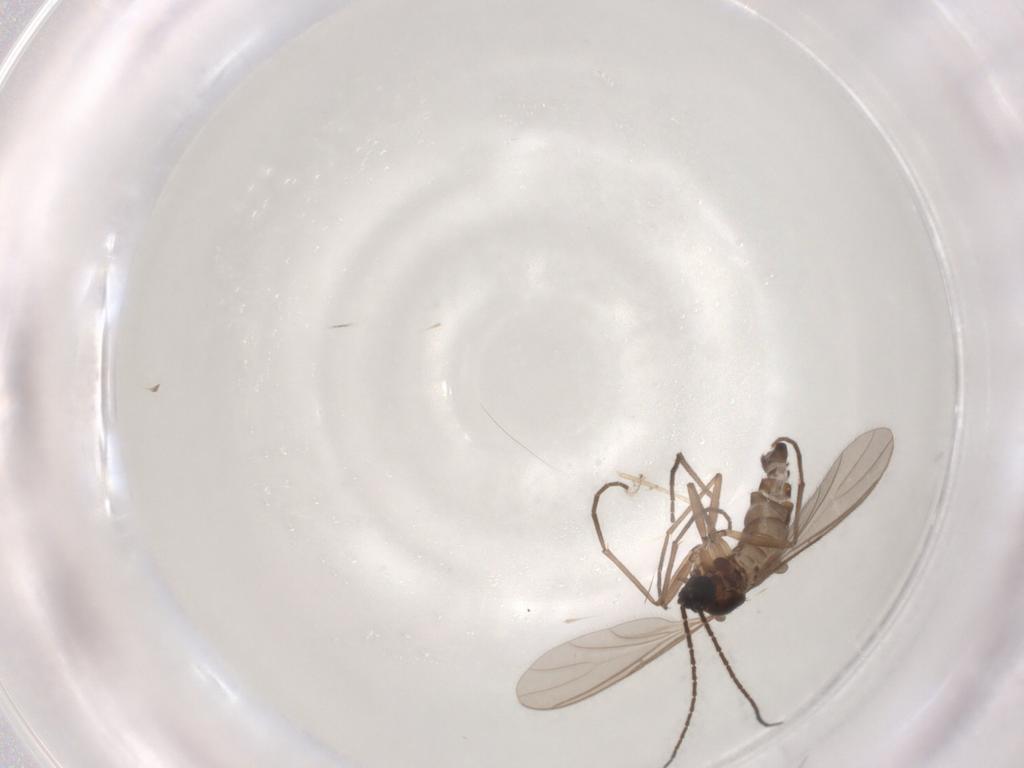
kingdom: Animalia
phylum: Arthropoda
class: Insecta
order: Diptera
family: Sciaridae
